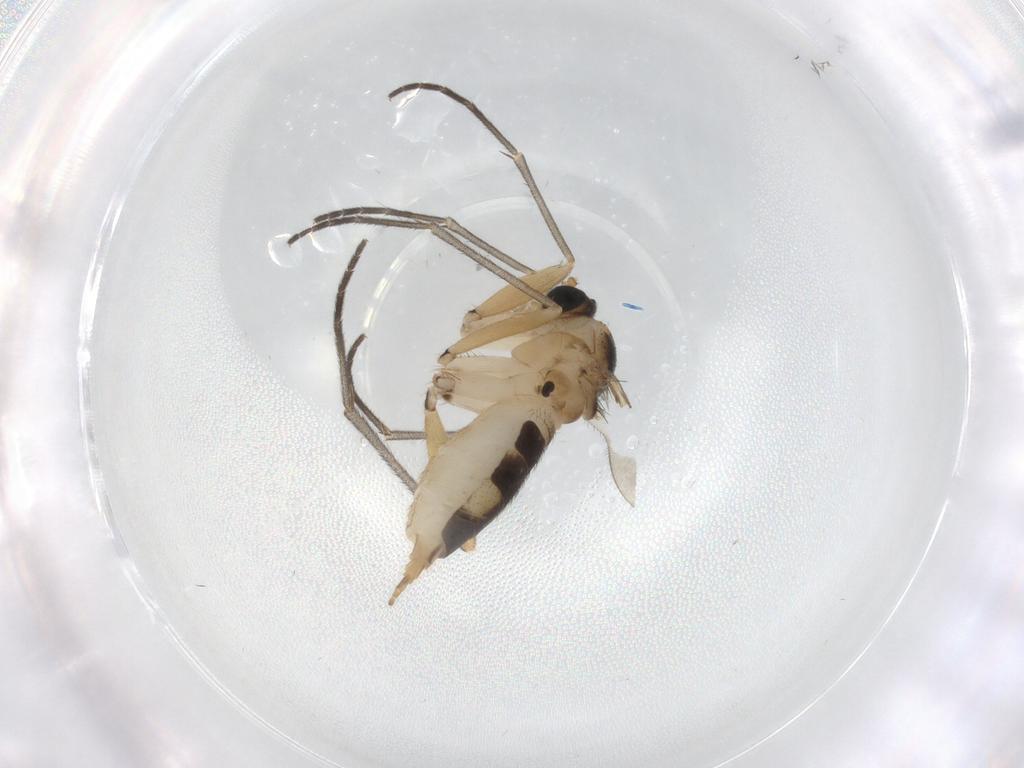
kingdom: Animalia
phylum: Arthropoda
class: Insecta
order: Diptera
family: Sciaridae
